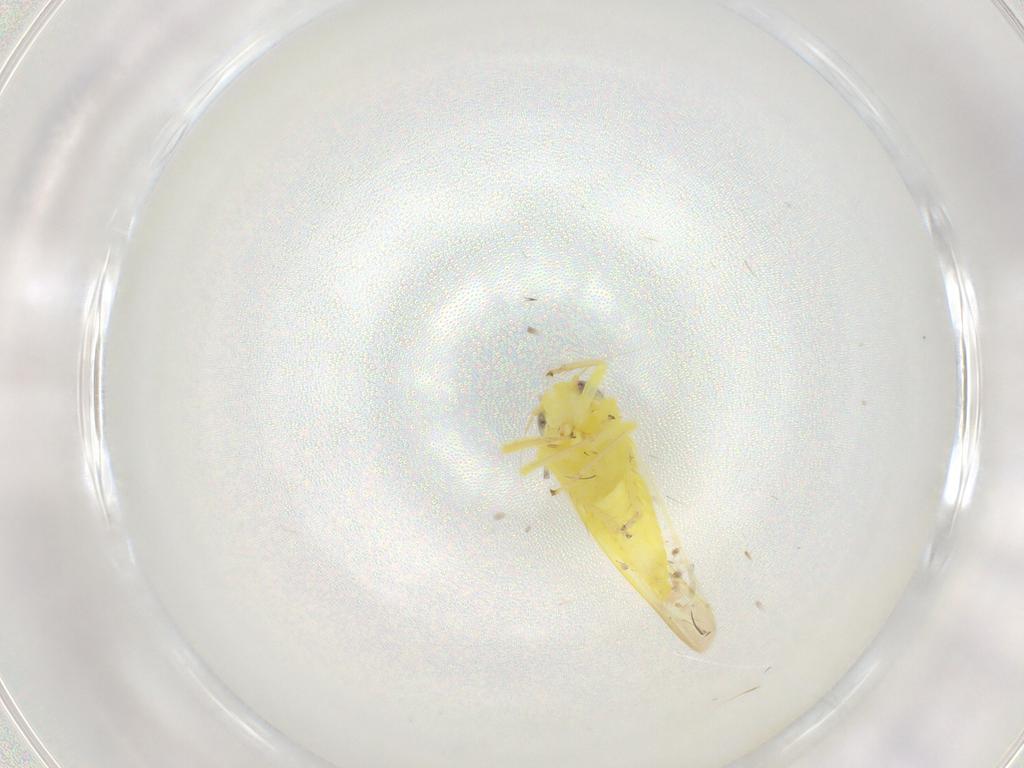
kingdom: Animalia
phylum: Arthropoda
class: Insecta
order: Hemiptera
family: Cicadellidae
